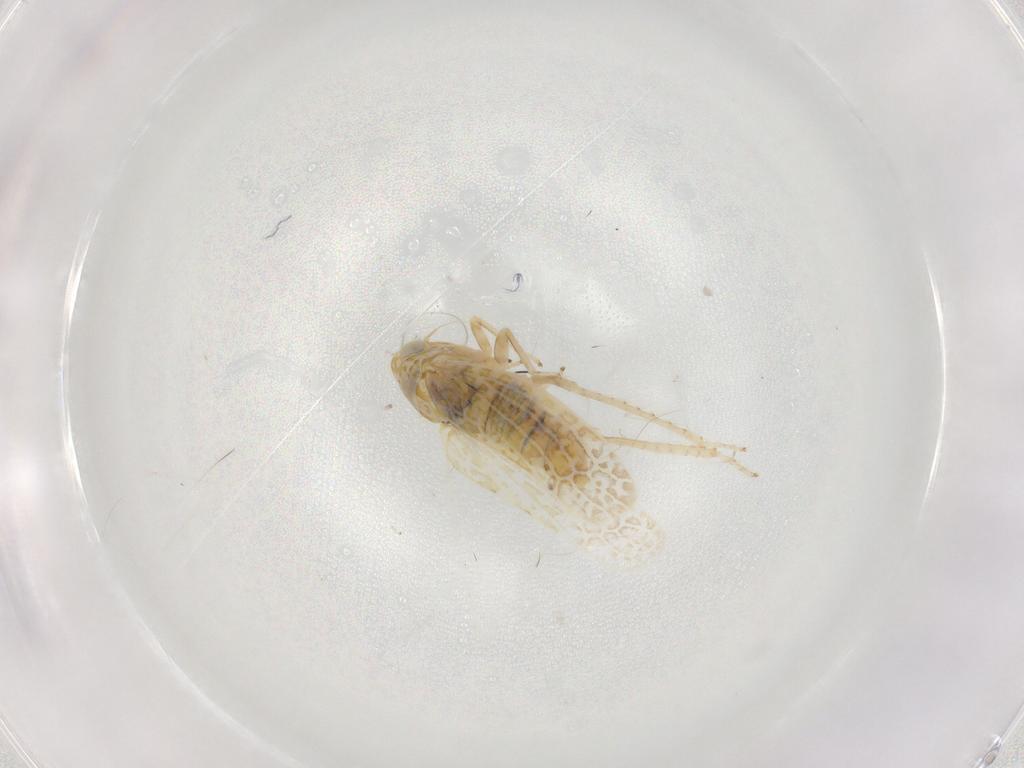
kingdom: Animalia
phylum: Arthropoda
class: Insecta
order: Hemiptera
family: Cicadellidae
